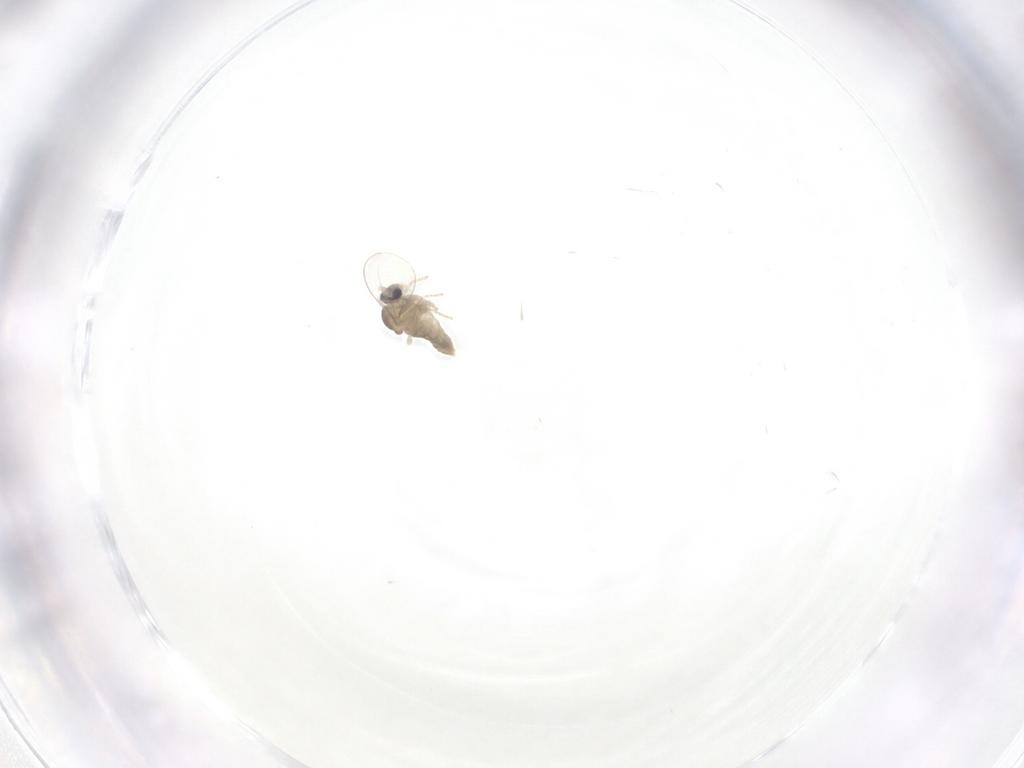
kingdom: Animalia
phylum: Arthropoda
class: Insecta
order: Diptera
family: Cecidomyiidae
